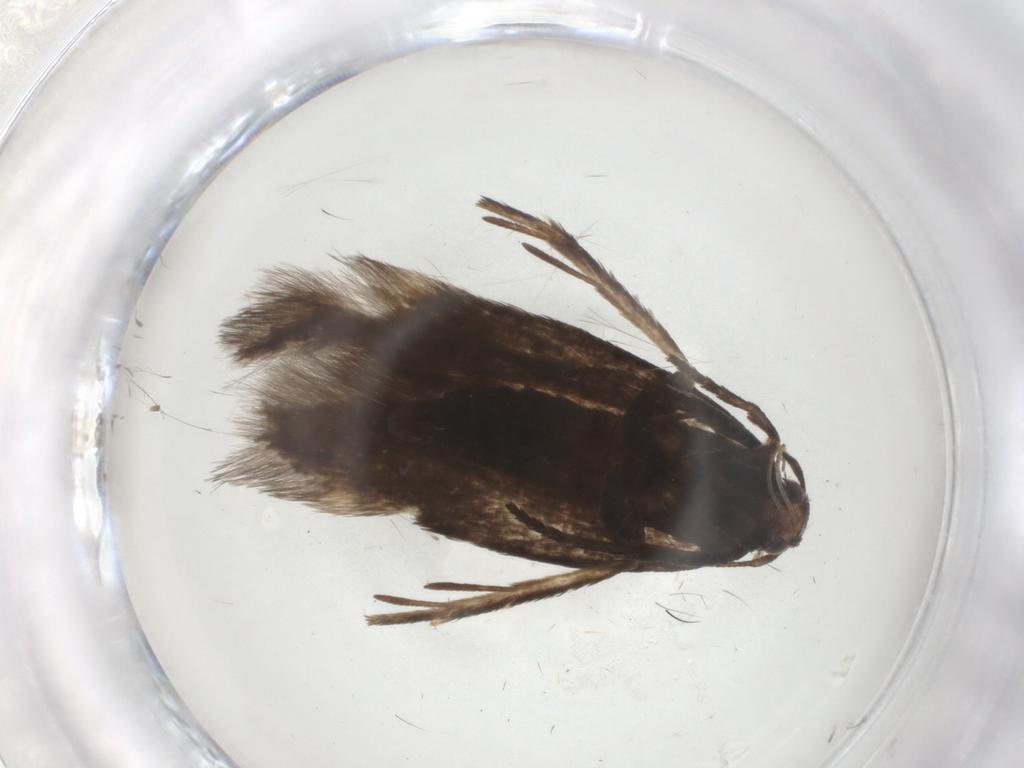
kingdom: Animalia
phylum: Arthropoda
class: Insecta
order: Lepidoptera
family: Gelechiidae
